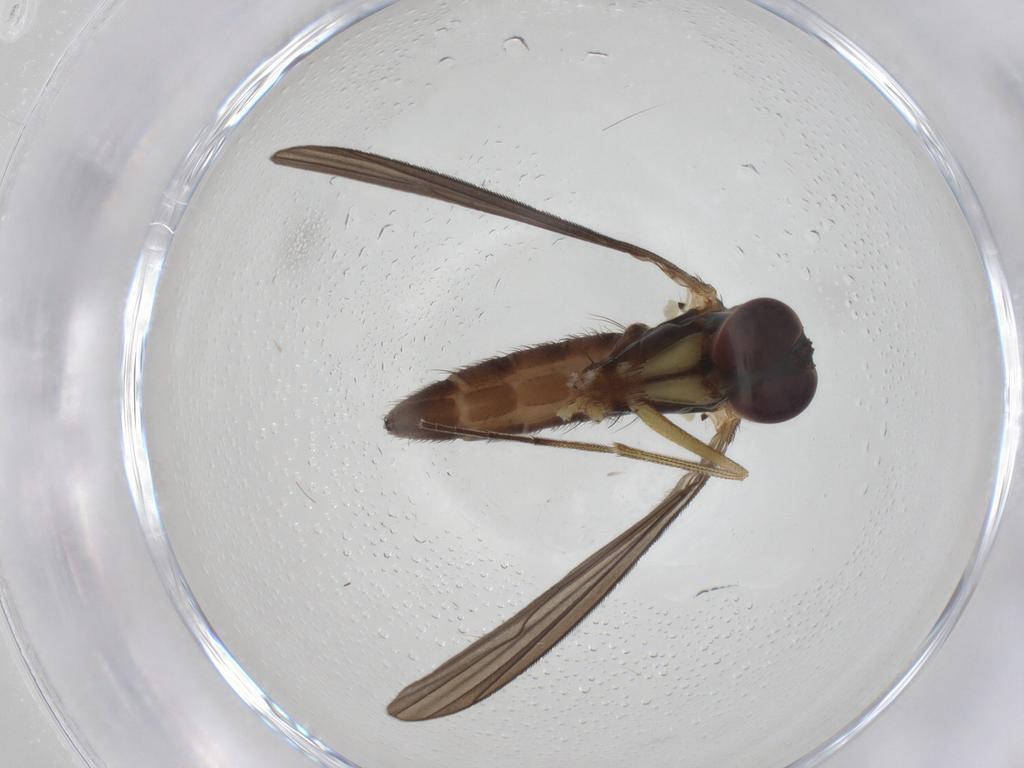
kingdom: Animalia
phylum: Arthropoda
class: Insecta
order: Diptera
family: Dolichopodidae
